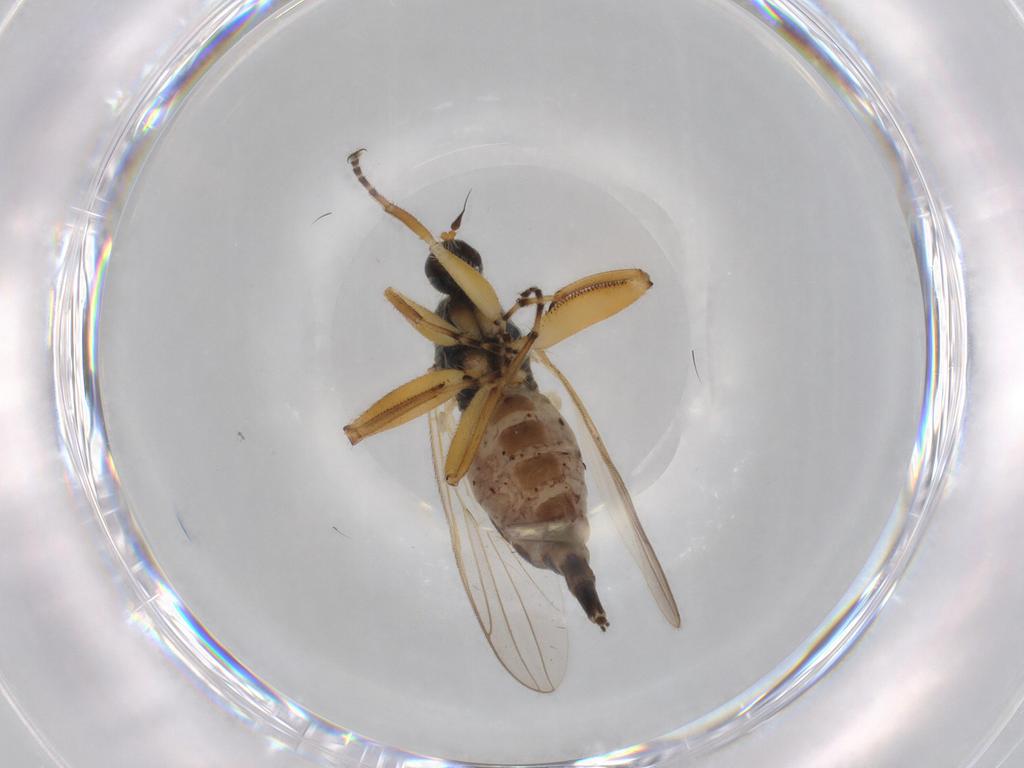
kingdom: Animalia
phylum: Arthropoda
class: Insecta
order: Diptera
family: Hybotidae
